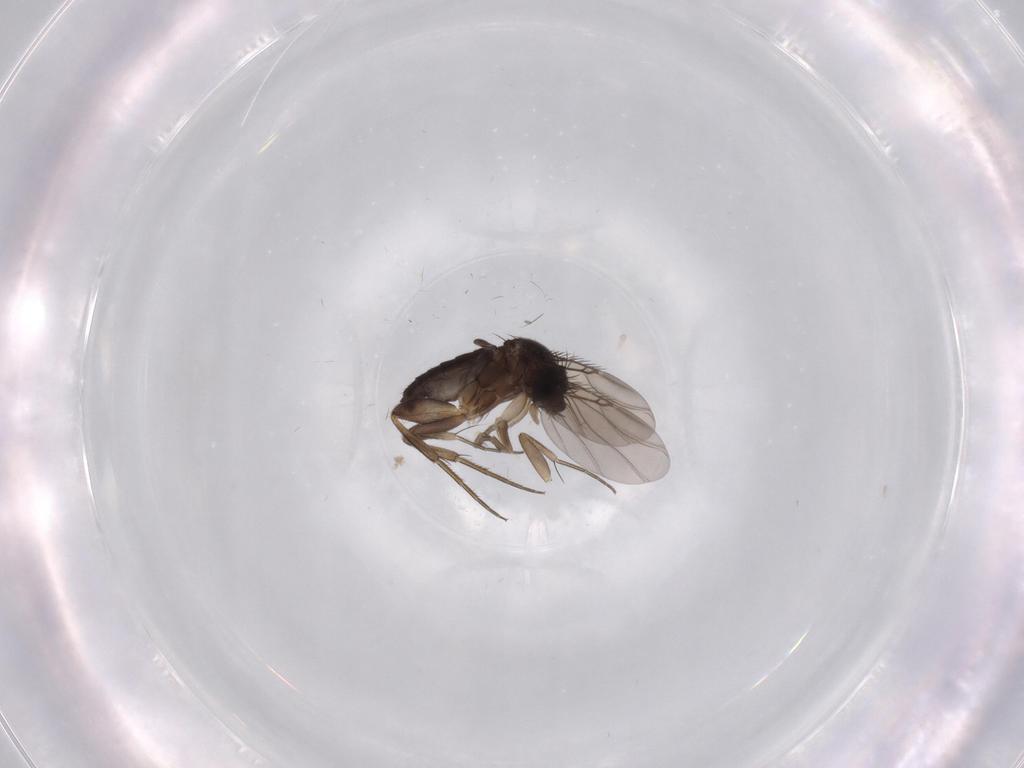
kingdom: Animalia
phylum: Arthropoda
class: Insecta
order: Diptera
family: Phoridae
